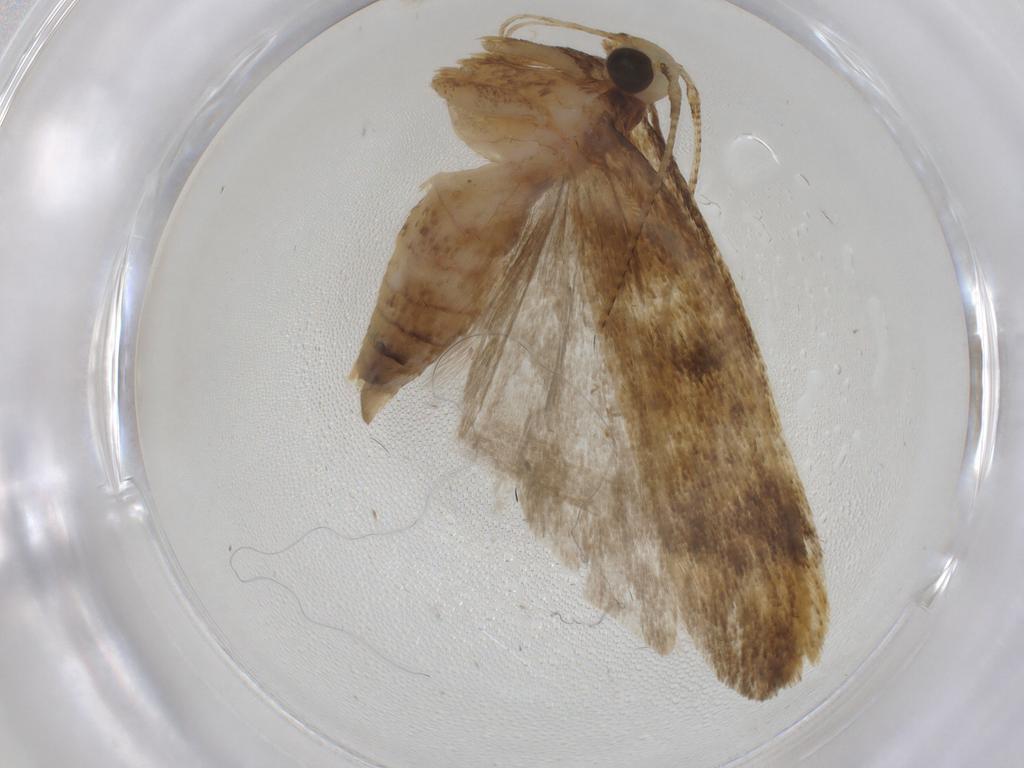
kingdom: Animalia
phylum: Arthropoda
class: Insecta
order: Lepidoptera
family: Autostichidae
